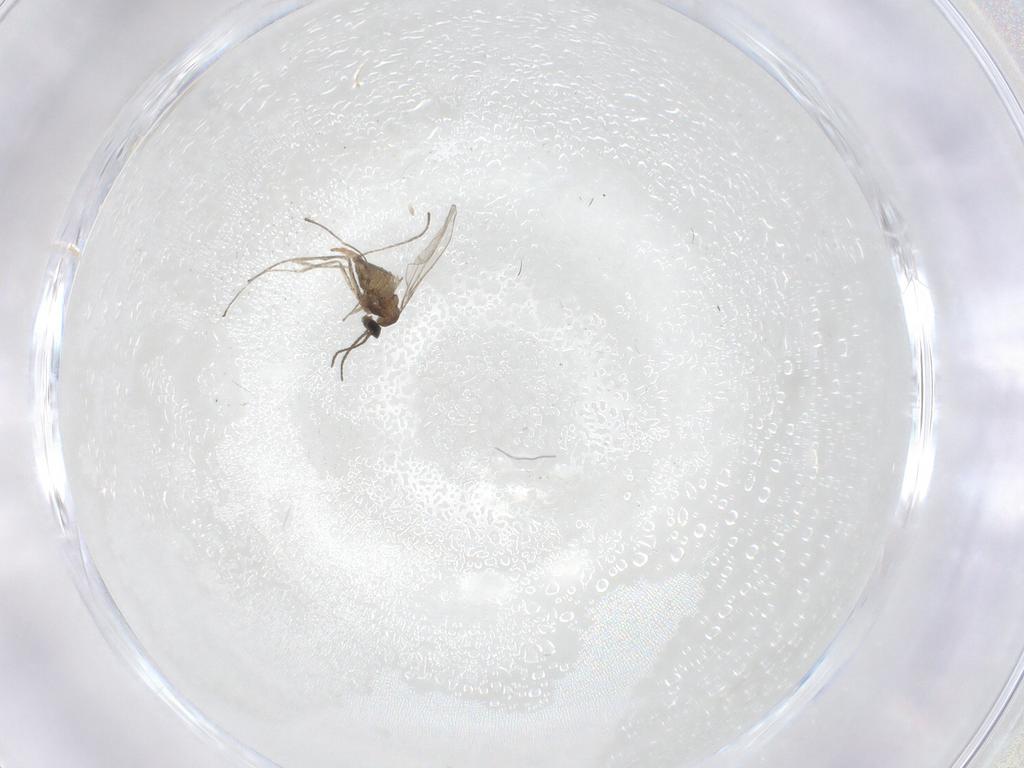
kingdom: Animalia
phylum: Arthropoda
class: Insecta
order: Diptera
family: Cecidomyiidae
